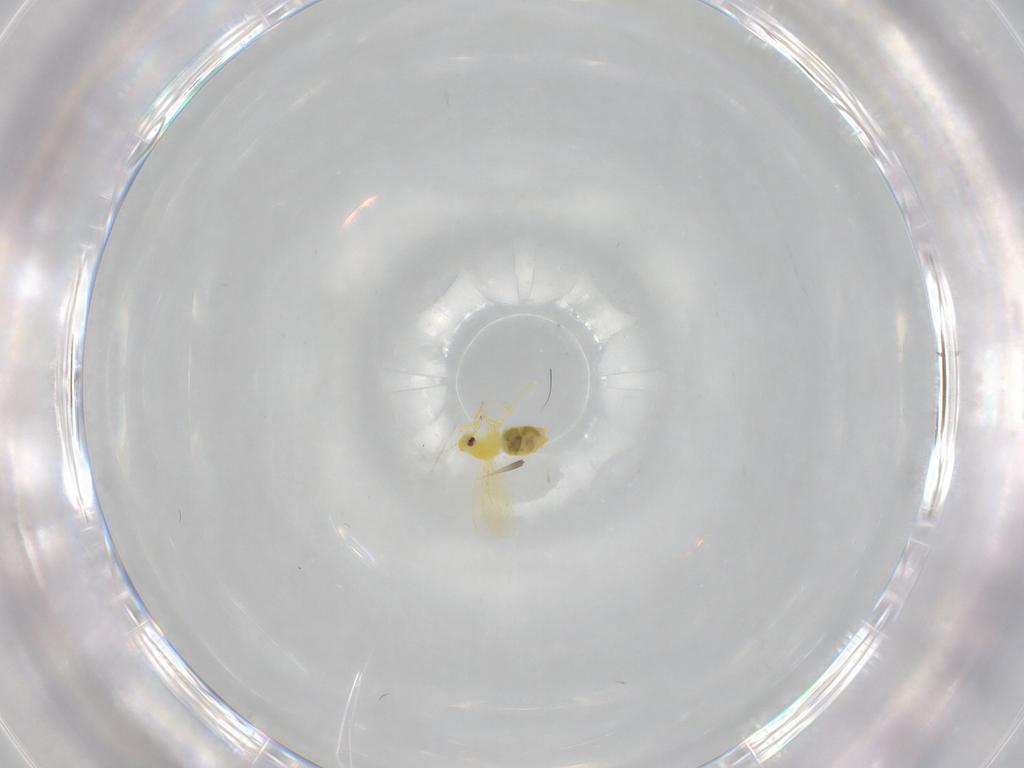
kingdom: Animalia
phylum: Arthropoda
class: Insecta
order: Hemiptera
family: Aleyrodidae
